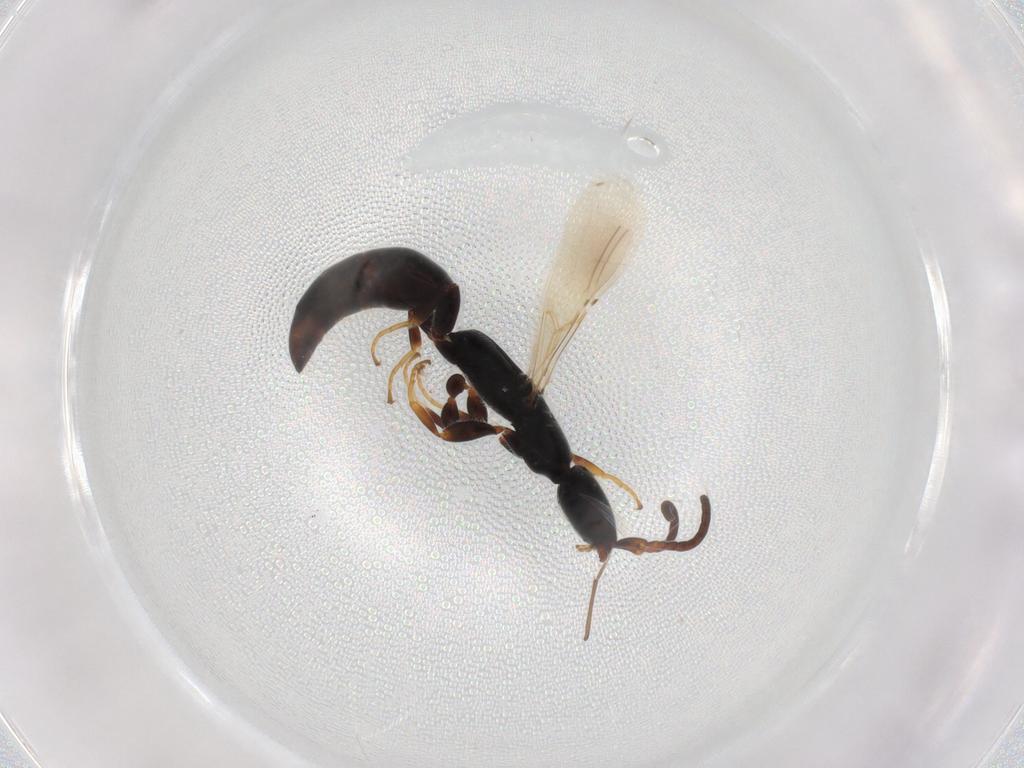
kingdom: Animalia
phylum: Arthropoda
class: Insecta
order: Hymenoptera
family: Bethylidae
